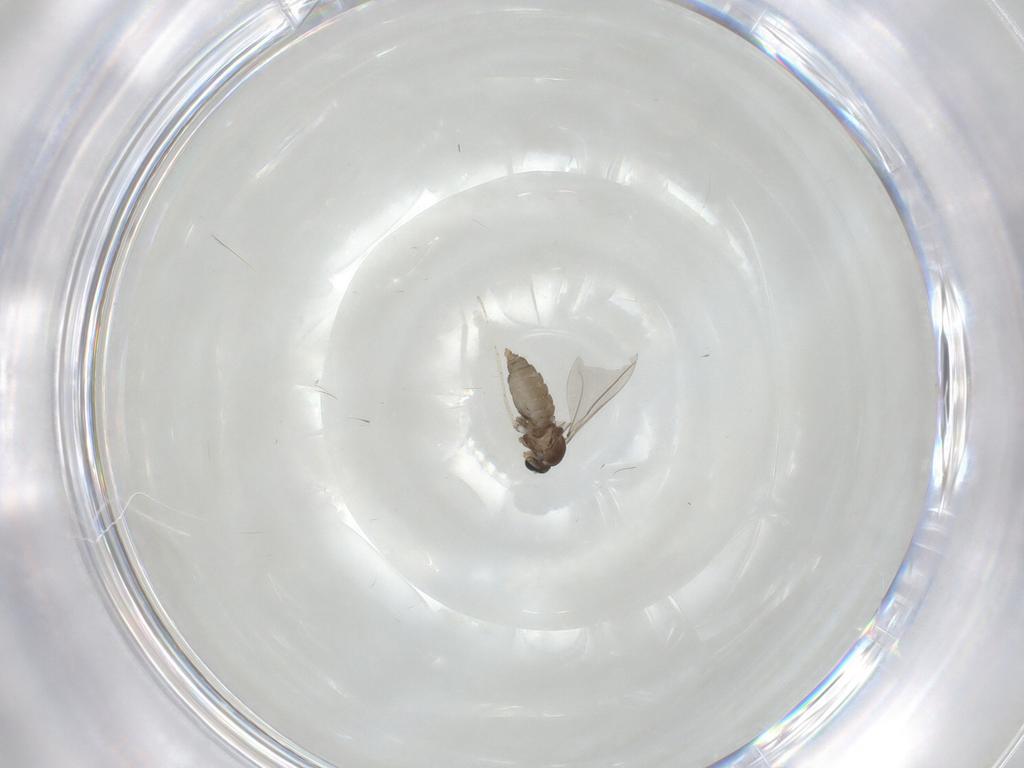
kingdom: Animalia
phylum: Arthropoda
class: Insecta
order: Diptera
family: Cecidomyiidae
